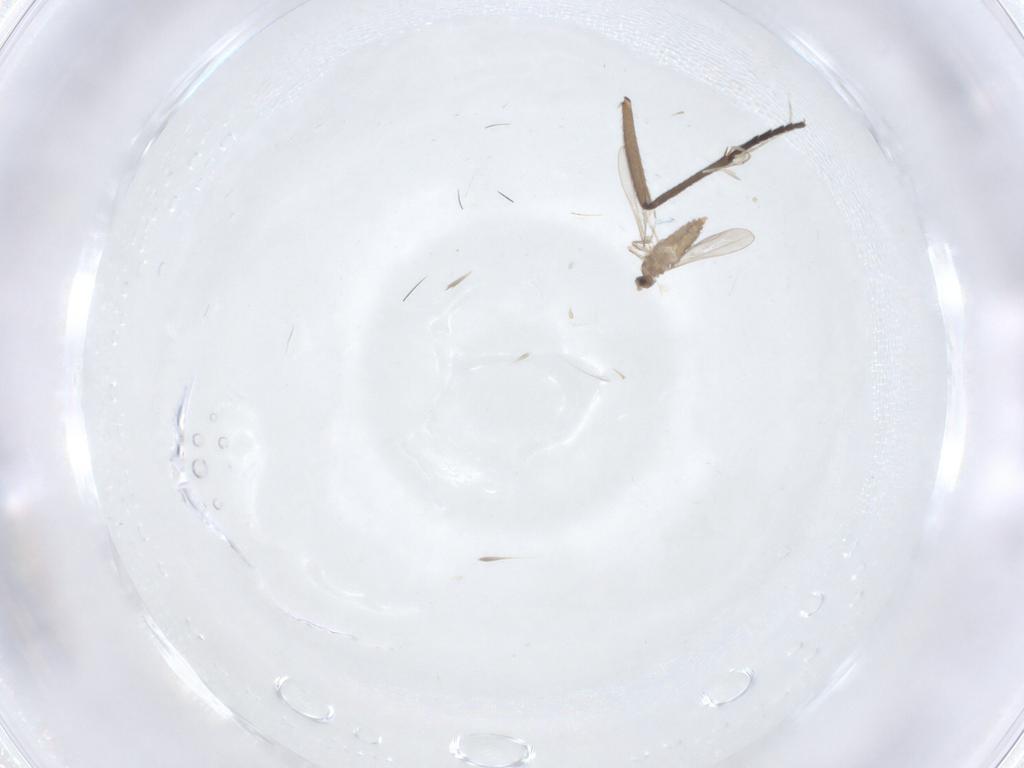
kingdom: Animalia
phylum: Arthropoda
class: Insecta
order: Diptera
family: Cecidomyiidae
